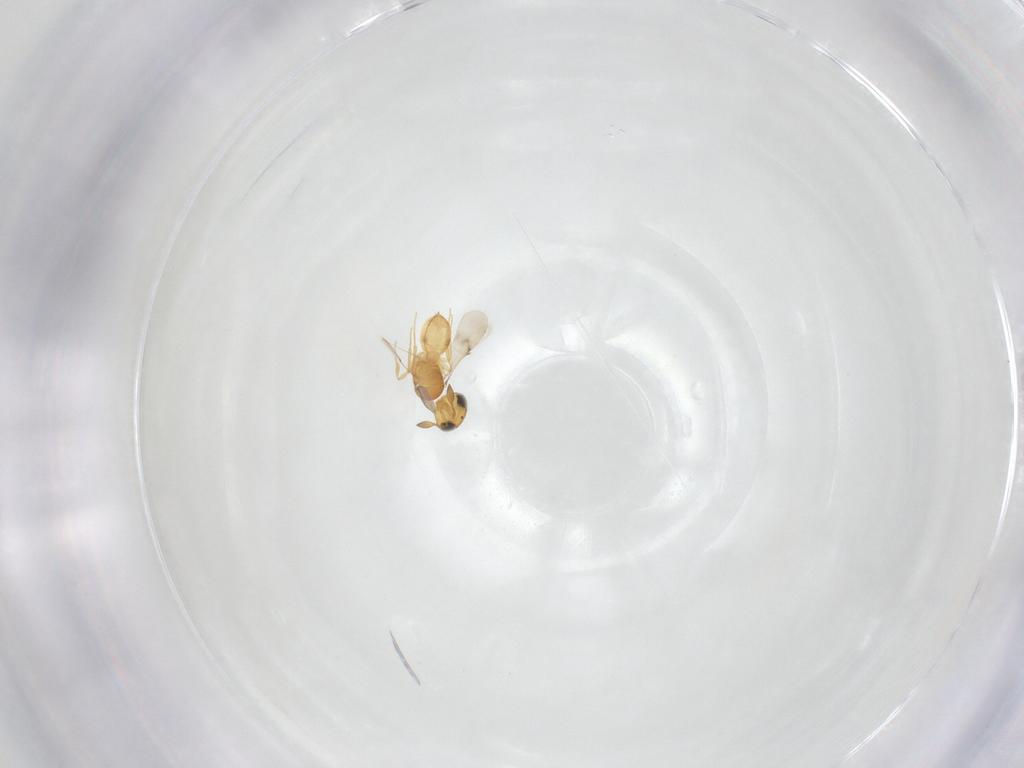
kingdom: Animalia
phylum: Arthropoda
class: Insecta
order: Hymenoptera
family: Scelionidae
